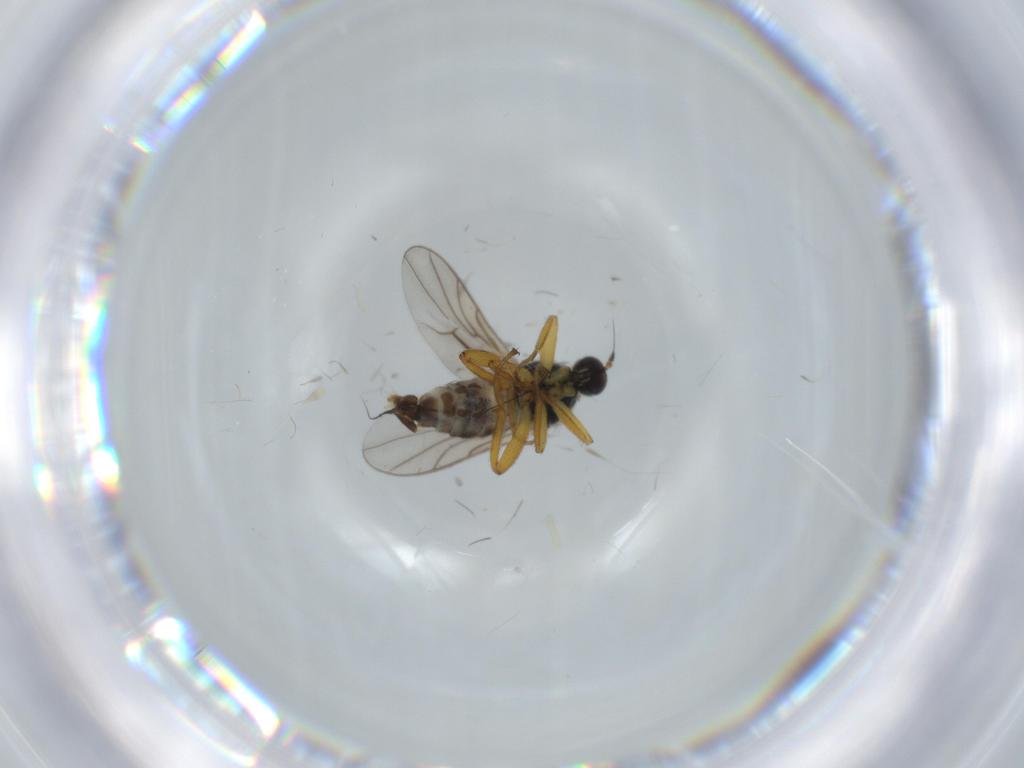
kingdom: Animalia
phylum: Arthropoda
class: Insecta
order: Diptera
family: Hybotidae
